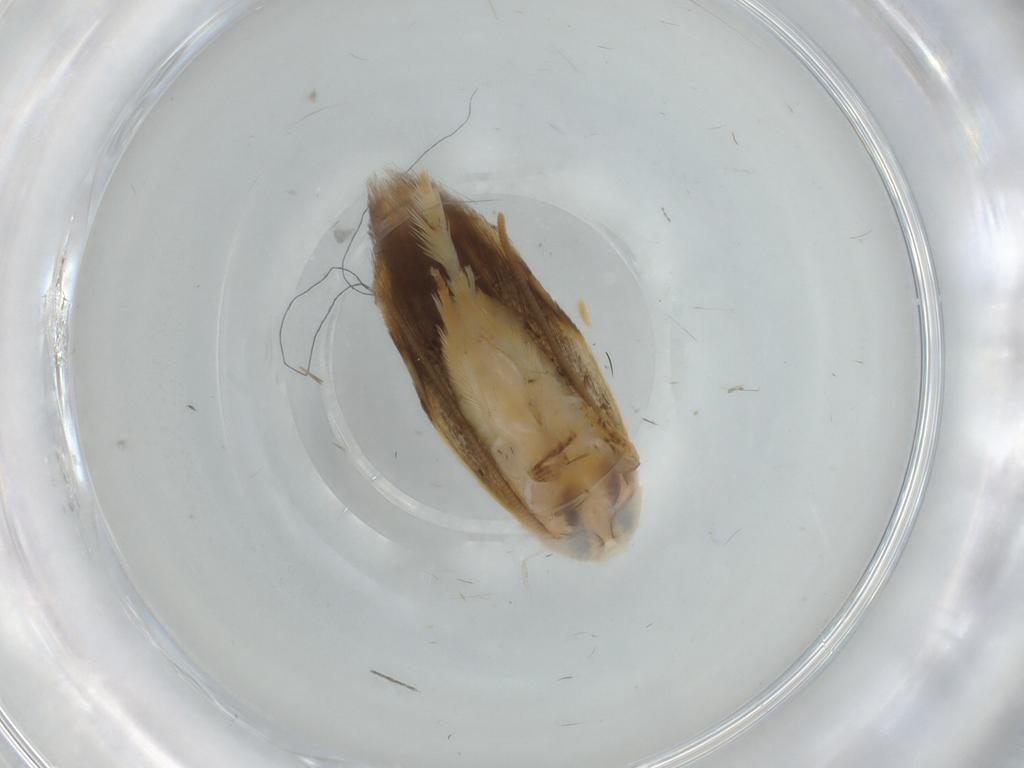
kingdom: Animalia
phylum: Arthropoda
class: Insecta
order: Lepidoptera
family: Opostegidae
